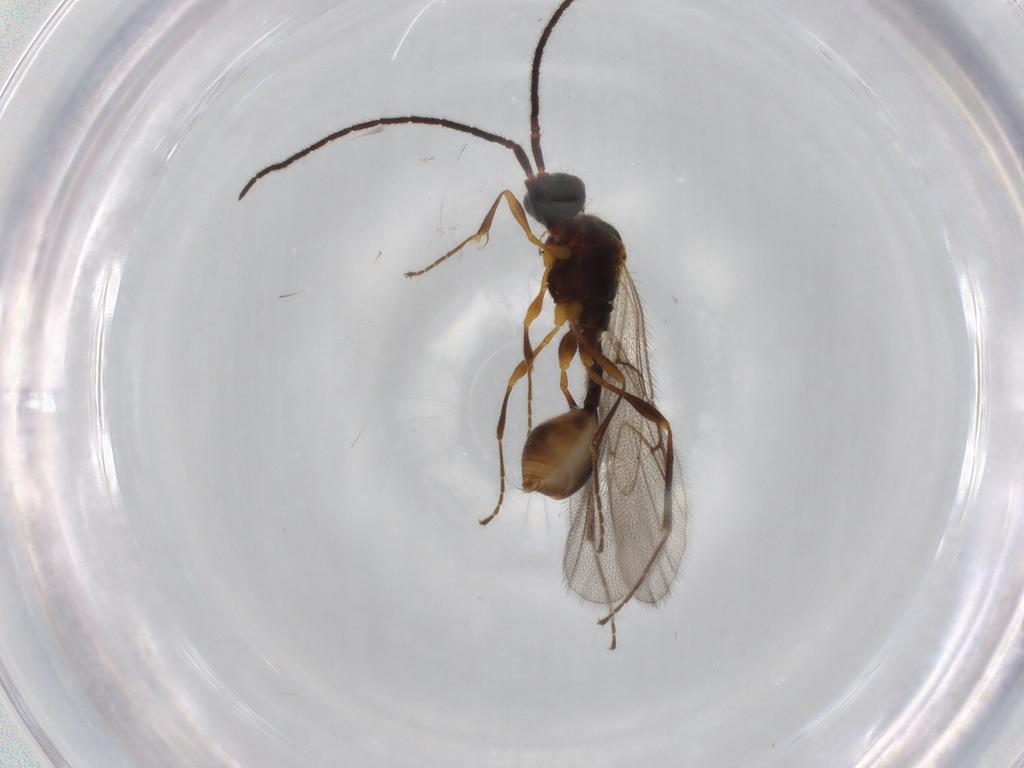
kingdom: Animalia
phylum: Arthropoda
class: Insecta
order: Hymenoptera
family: Diapriidae
